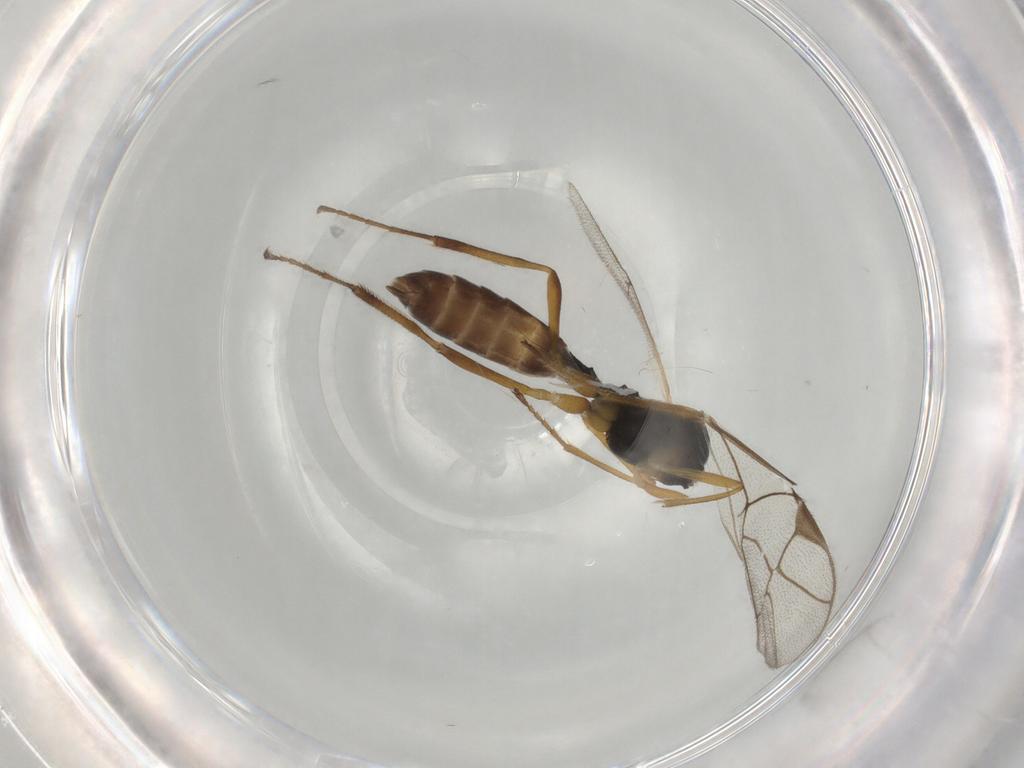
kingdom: Animalia
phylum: Arthropoda
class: Insecta
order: Hymenoptera
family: Ichneumonidae
